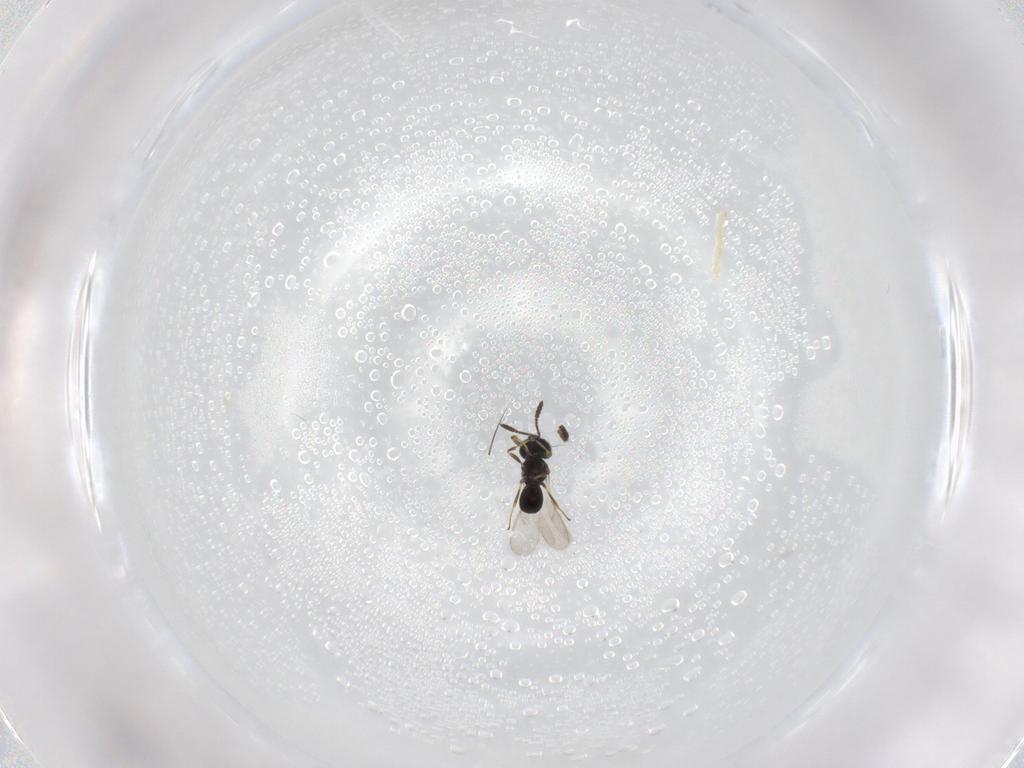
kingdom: Animalia
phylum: Arthropoda
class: Insecta
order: Hymenoptera
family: Scelionidae
